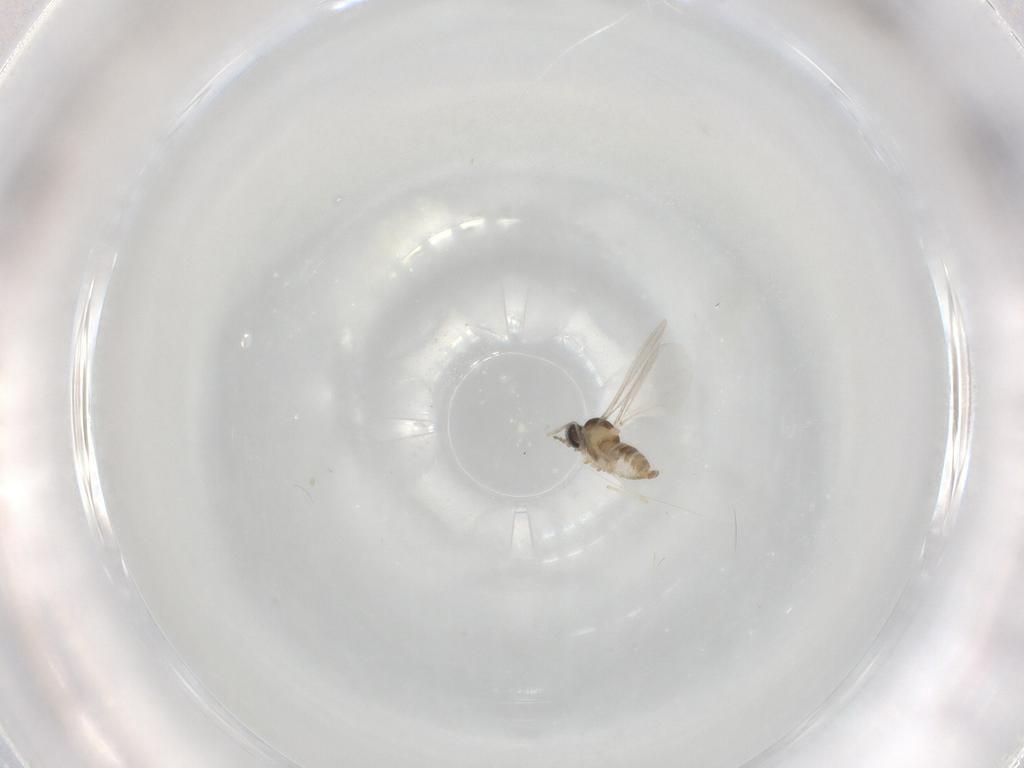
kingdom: Animalia
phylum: Arthropoda
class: Insecta
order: Diptera
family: Cecidomyiidae
